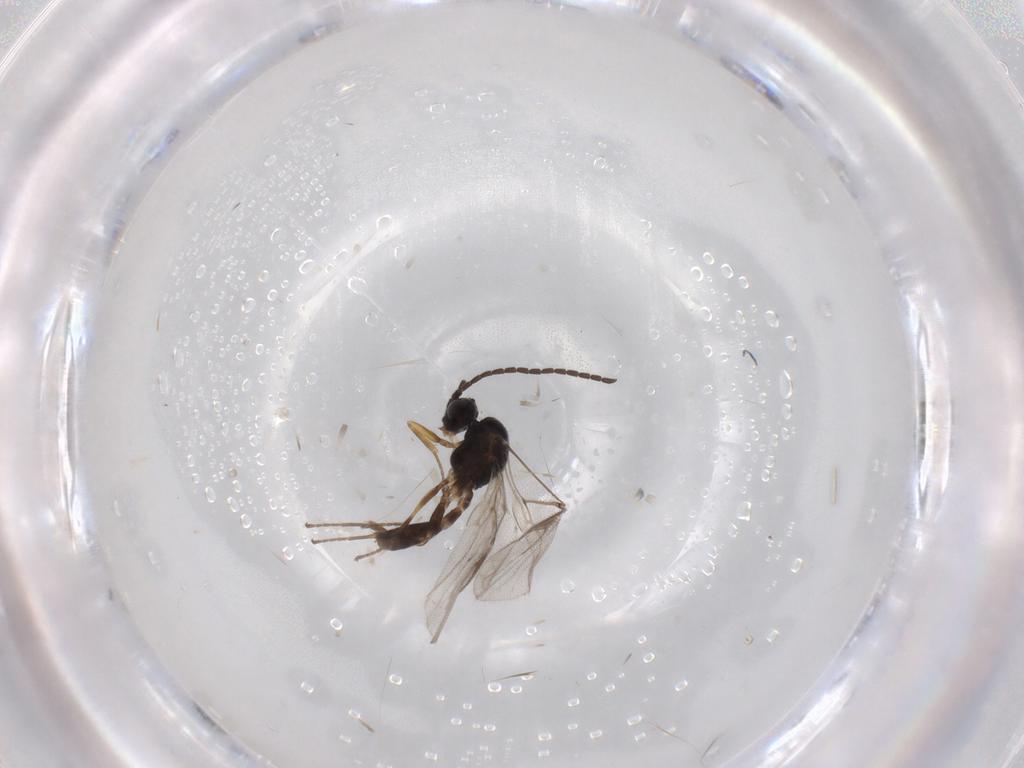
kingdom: Animalia
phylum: Arthropoda
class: Insecta
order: Hymenoptera
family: Braconidae
